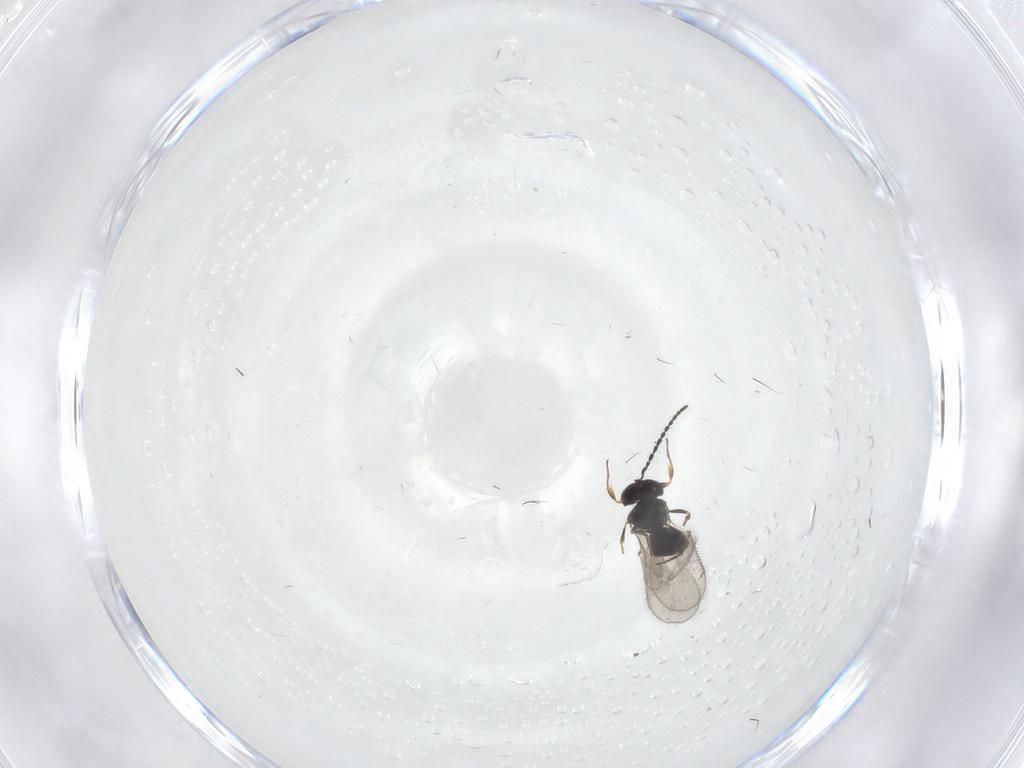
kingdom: Animalia
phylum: Arthropoda
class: Insecta
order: Hymenoptera
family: Scelionidae
